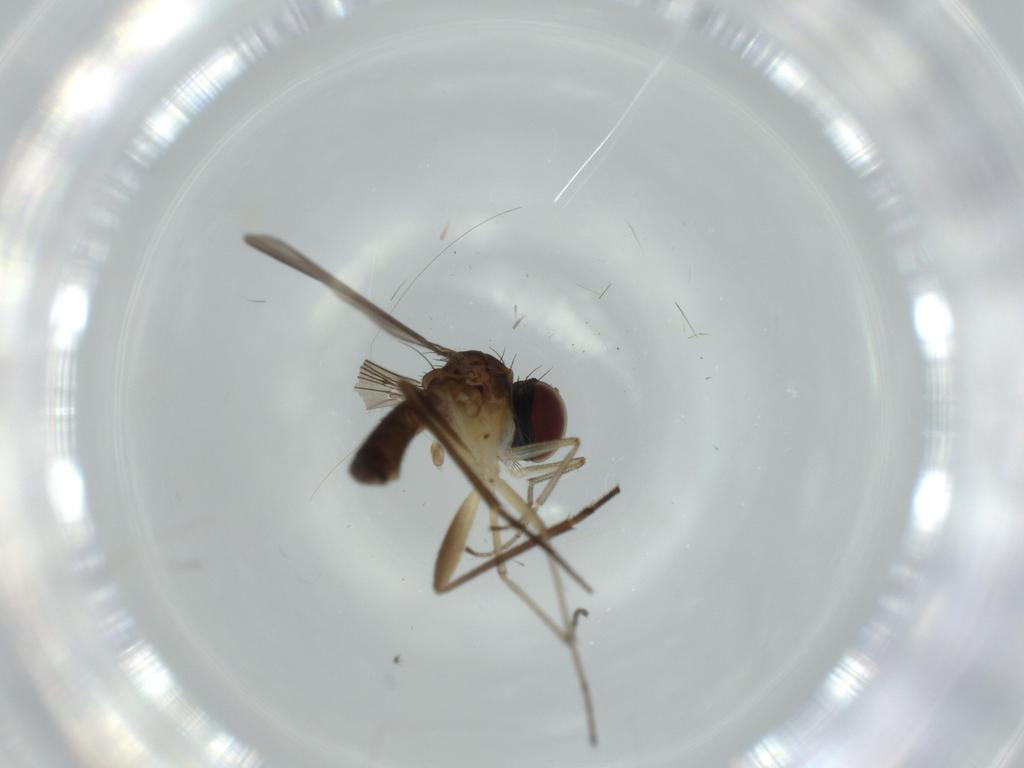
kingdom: Animalia
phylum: Arthropoda
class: Insecta
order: Diptera
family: Dolichopodidae
